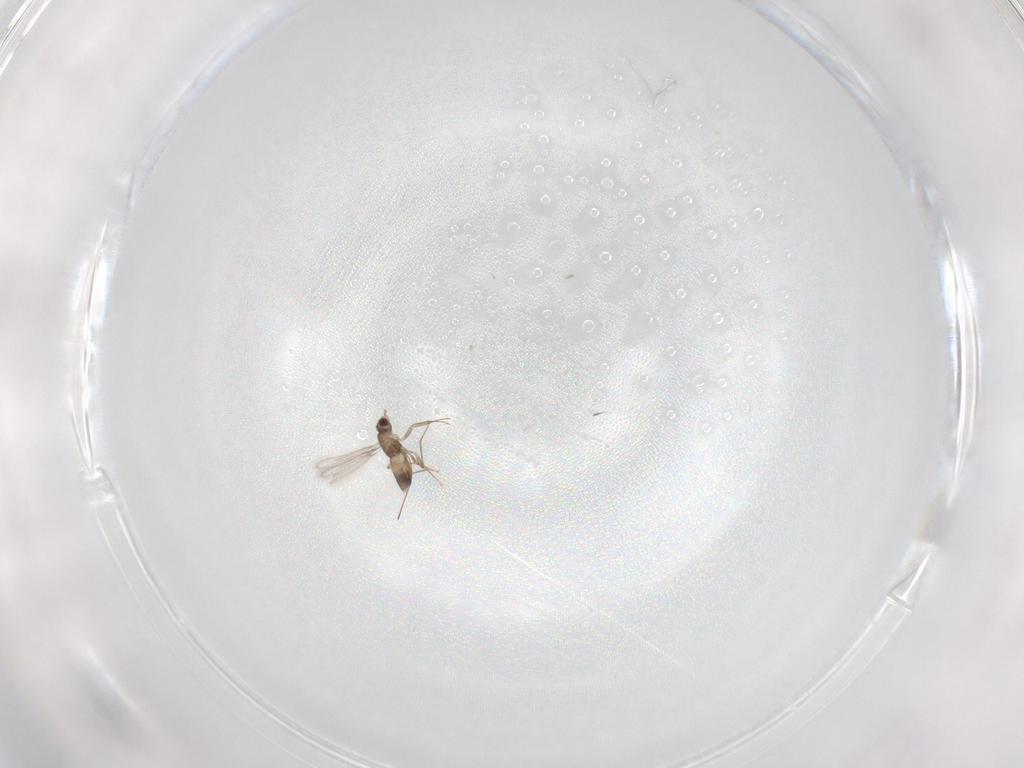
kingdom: Animalia
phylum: Arthropoda
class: Insecta
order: Hymenoptera
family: Mymaridae
